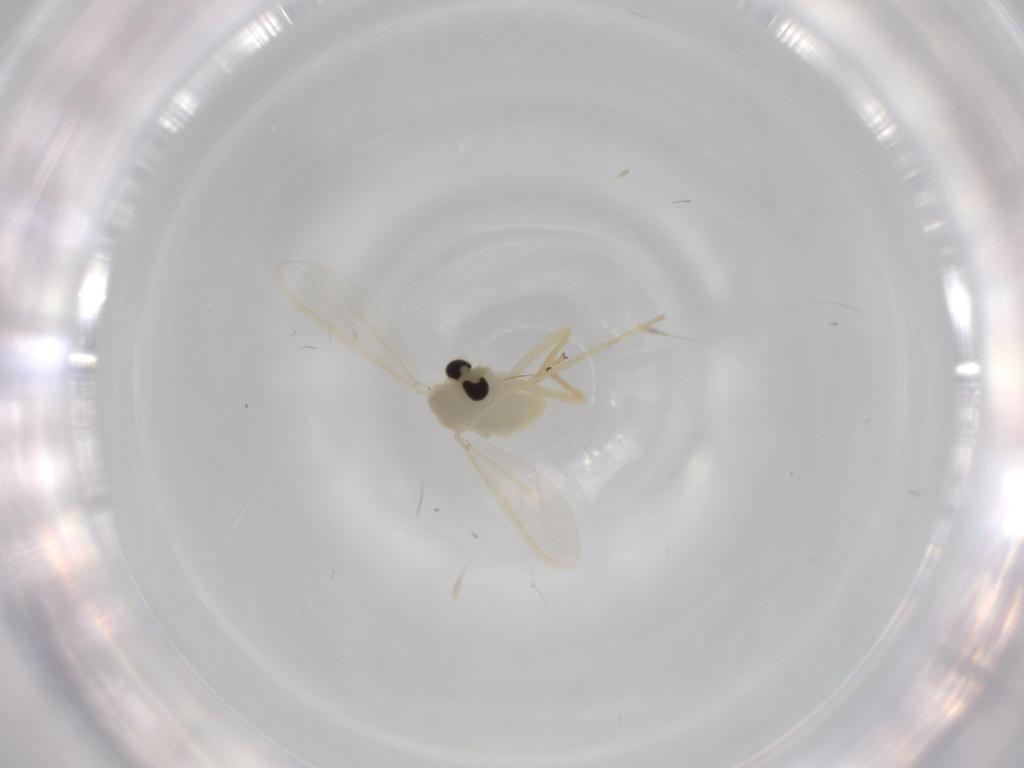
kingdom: Animalia
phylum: Arthropoda
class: Insecta
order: Diptera
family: Chironomidae
